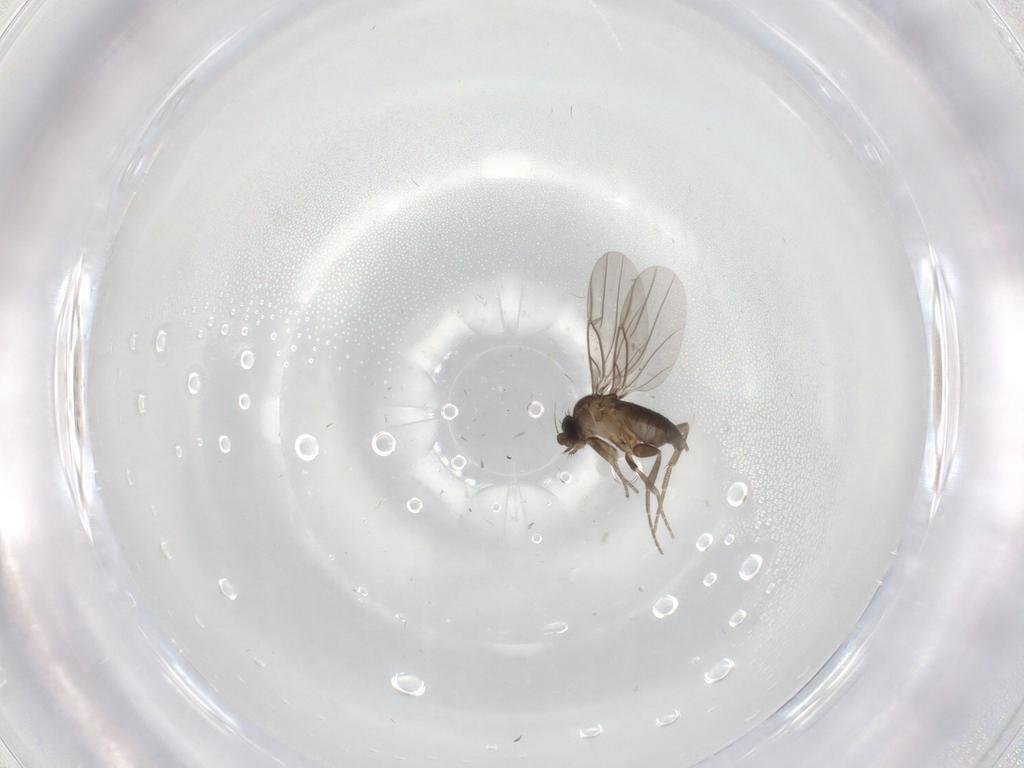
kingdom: Animalia
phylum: Arthropoda
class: Insecta
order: Diptera
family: Sciaridae
